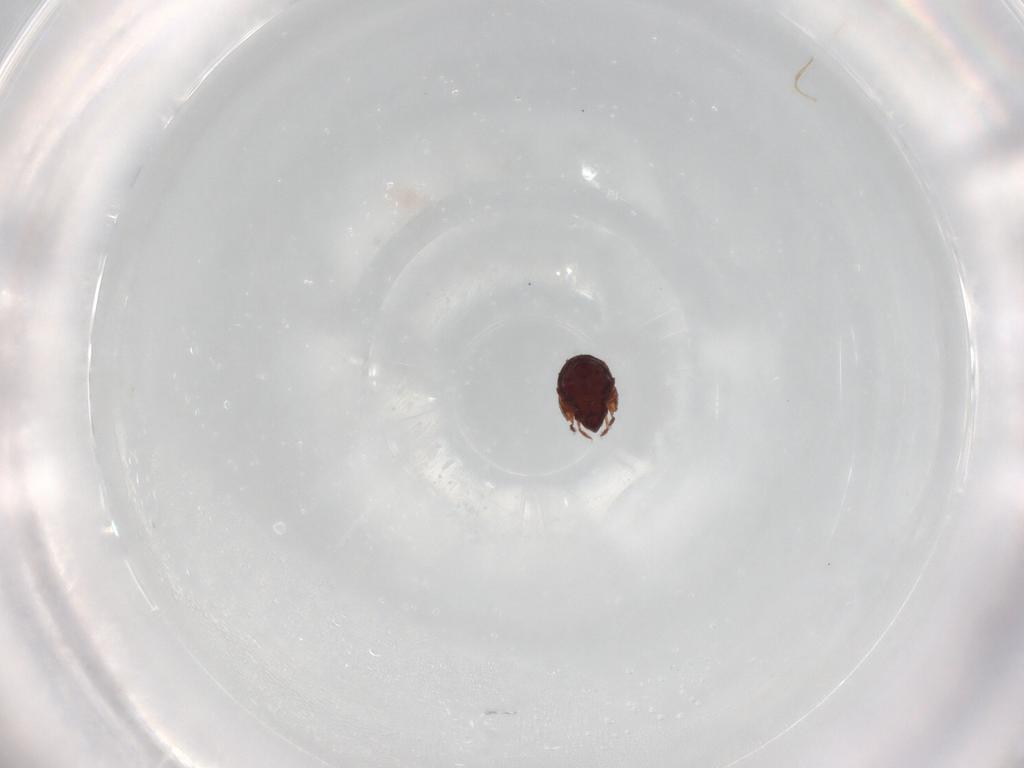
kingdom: Animalia
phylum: Arthropoda
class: Arachnida
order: Sarcoptiformes
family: Humerobatidae
